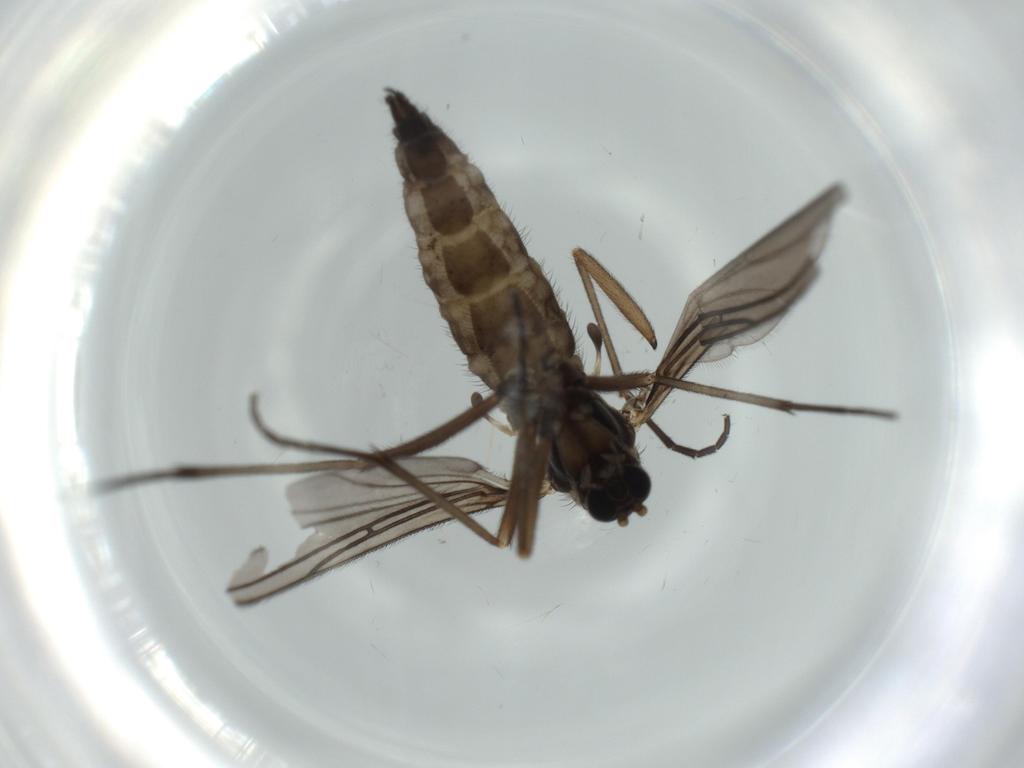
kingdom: Animalia
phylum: Arthropoda
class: Insecta
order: Diptera
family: Sciaridae
